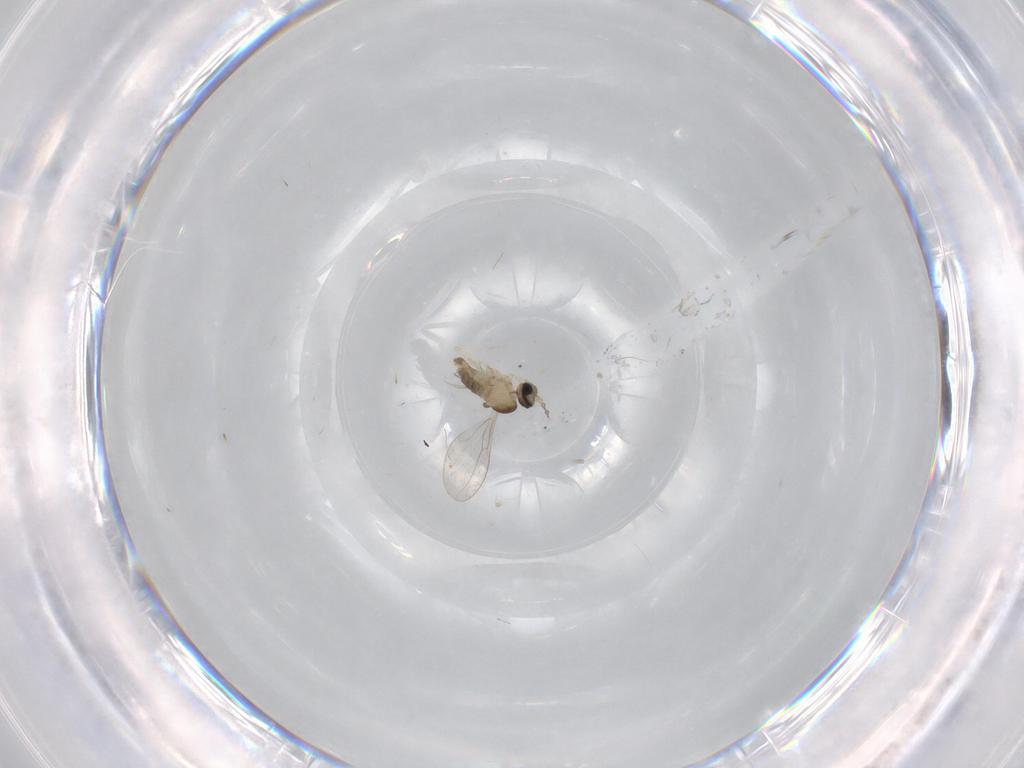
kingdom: Animalia
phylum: Arthropoda
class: Insecta
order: Diptera
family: Cecidomyiidae
